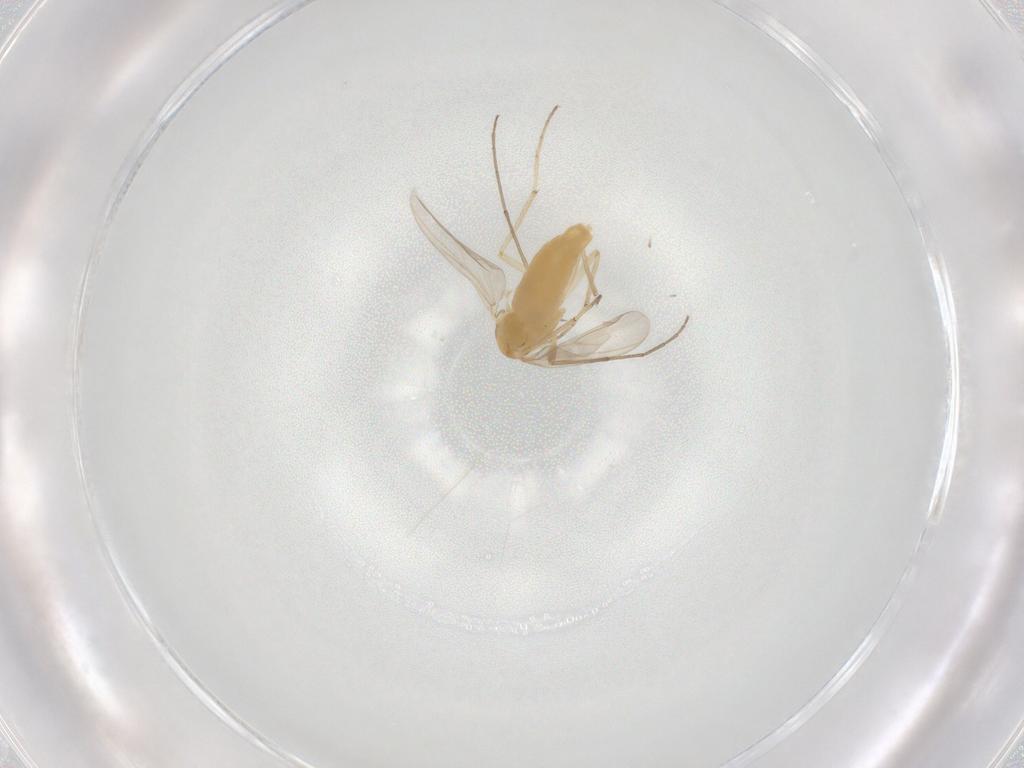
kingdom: Animalia
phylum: Arthropoda
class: Insecta
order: Diptera
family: Chironomidae
